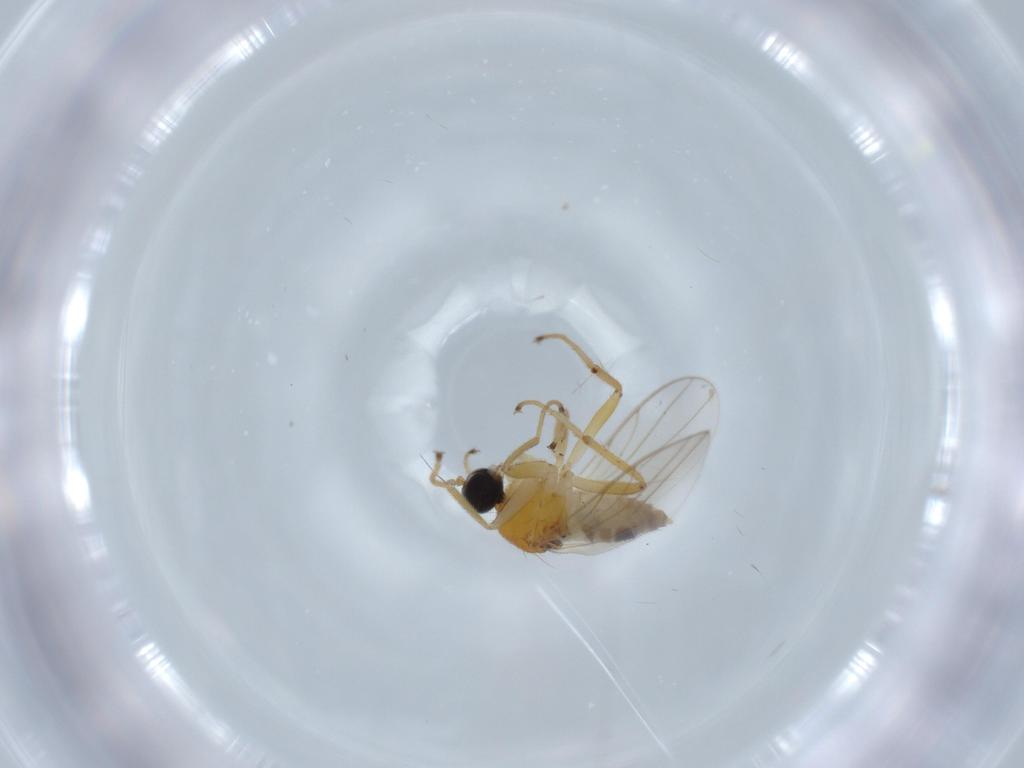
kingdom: Animalia
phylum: Arthropoda
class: Insecta
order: Diptera
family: Hybotidae
